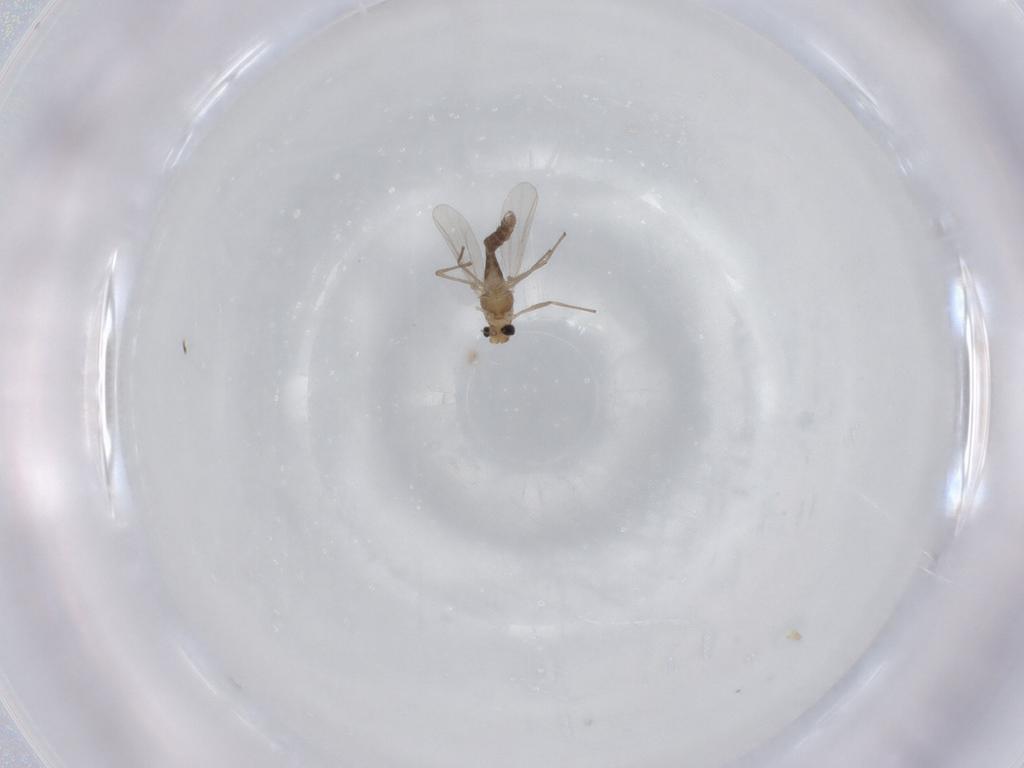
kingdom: Animalia
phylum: Arthropoda
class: Insecta
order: Diptera
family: Chironomidae
